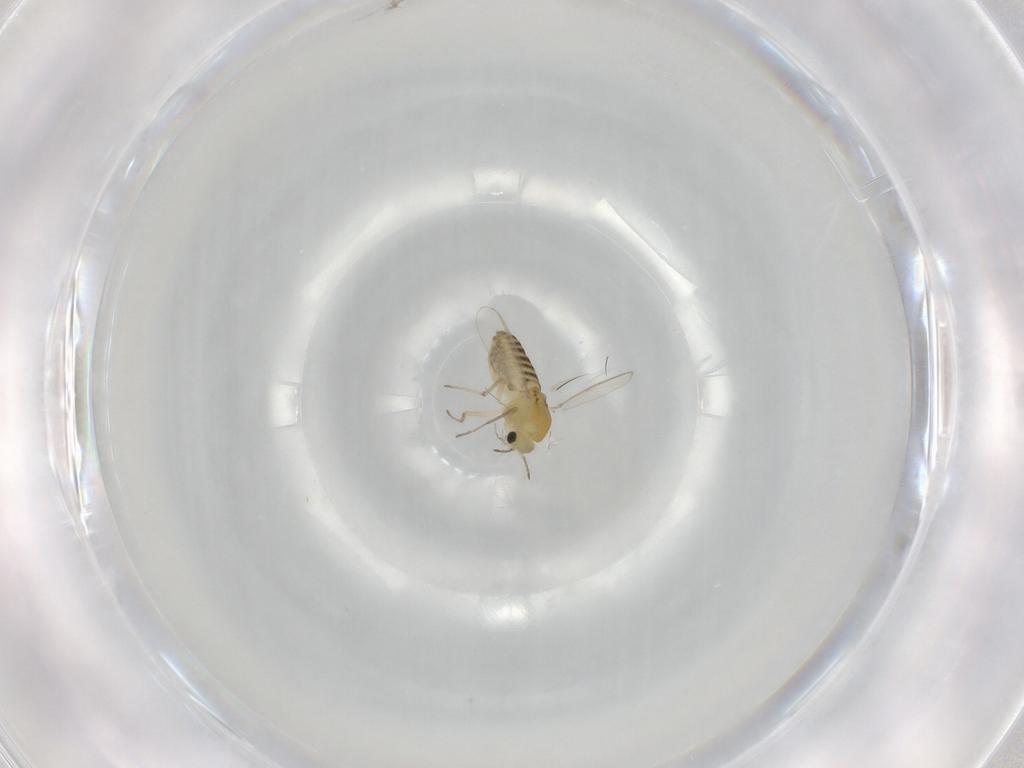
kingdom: Animalia
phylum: Arthropoda
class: Insecta
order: Diptera
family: Chironomidae
